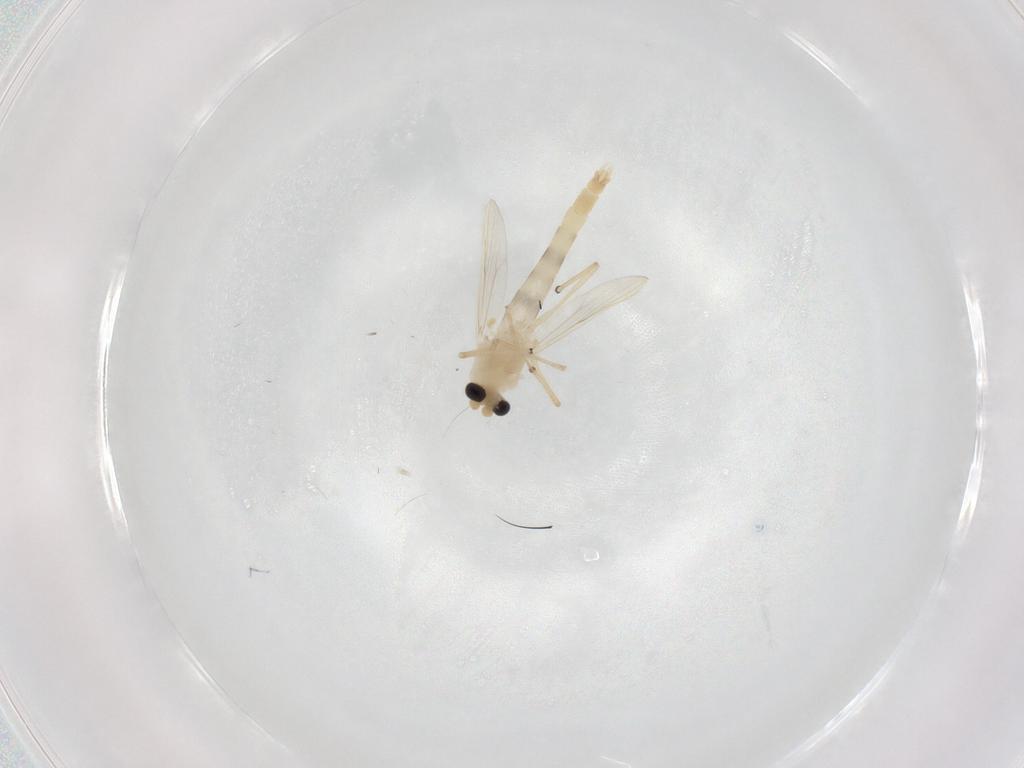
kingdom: Animalia
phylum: Arthropoda
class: Insecta
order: Diptera
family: Chironomidae
